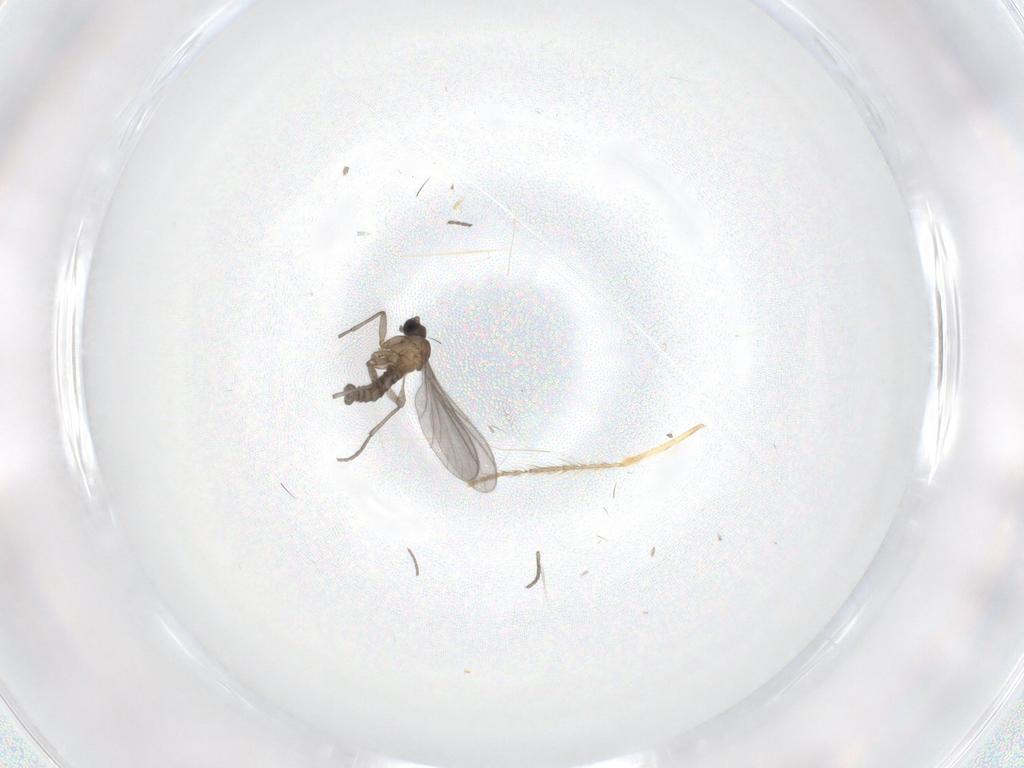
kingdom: Animalia
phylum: Arthropoda
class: Insecta
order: Diptera
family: Sciaridae
